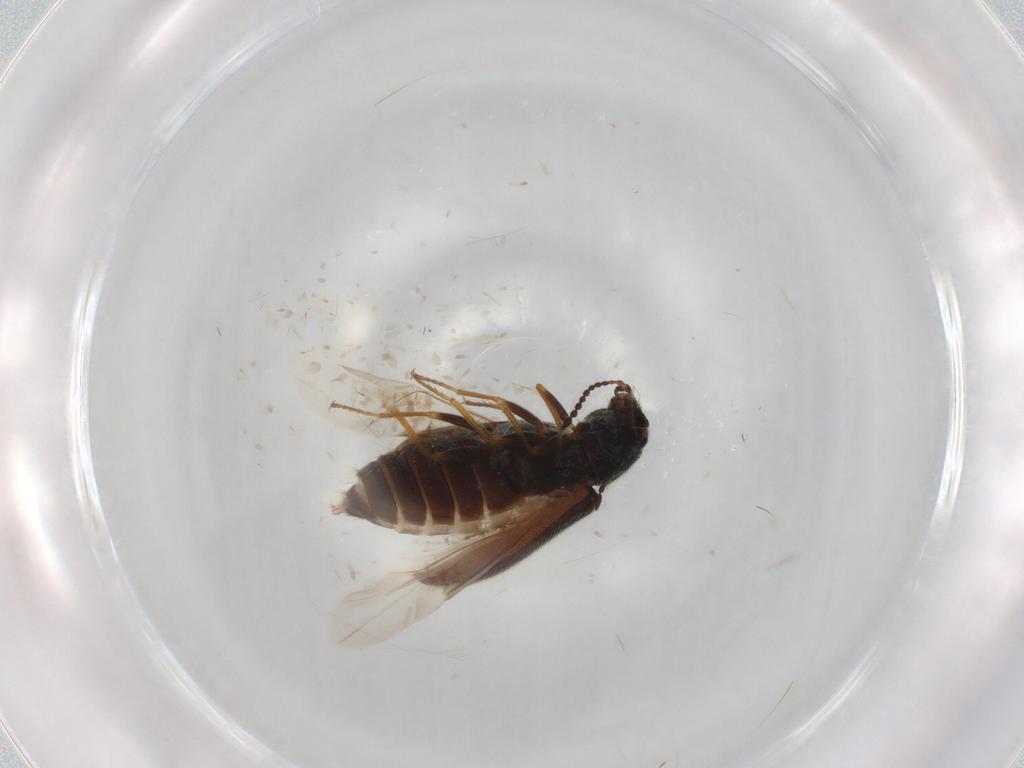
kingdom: Animalia
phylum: Arthropoda
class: Insecta
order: Coleoptera
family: Dasytidae
